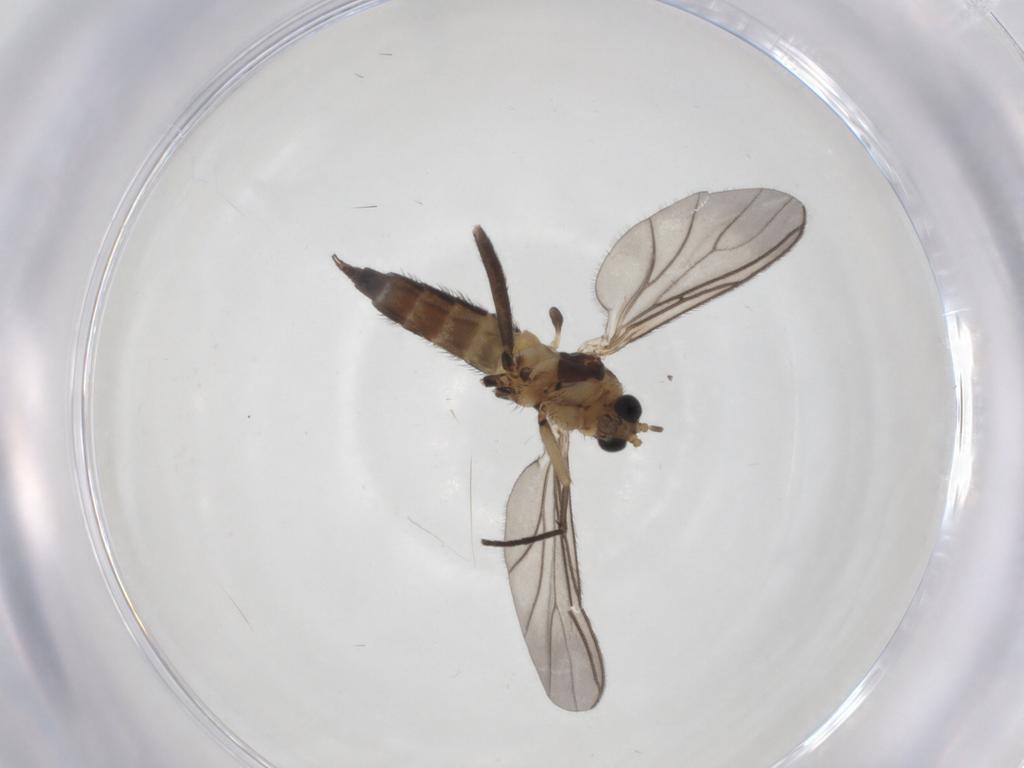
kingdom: Animalia
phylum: Arthropoda
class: Insecta
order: Diptera
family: Sciaridae
